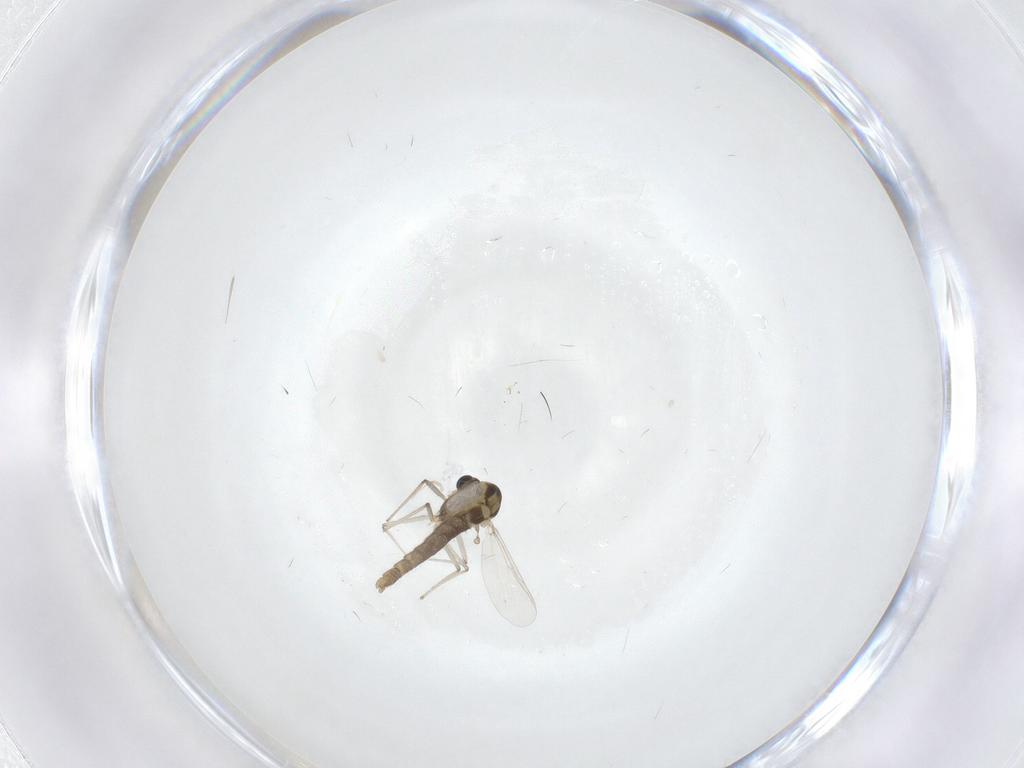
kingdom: Animalia
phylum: Arthropoda
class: Insecta
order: Diptera
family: Chironomidae
